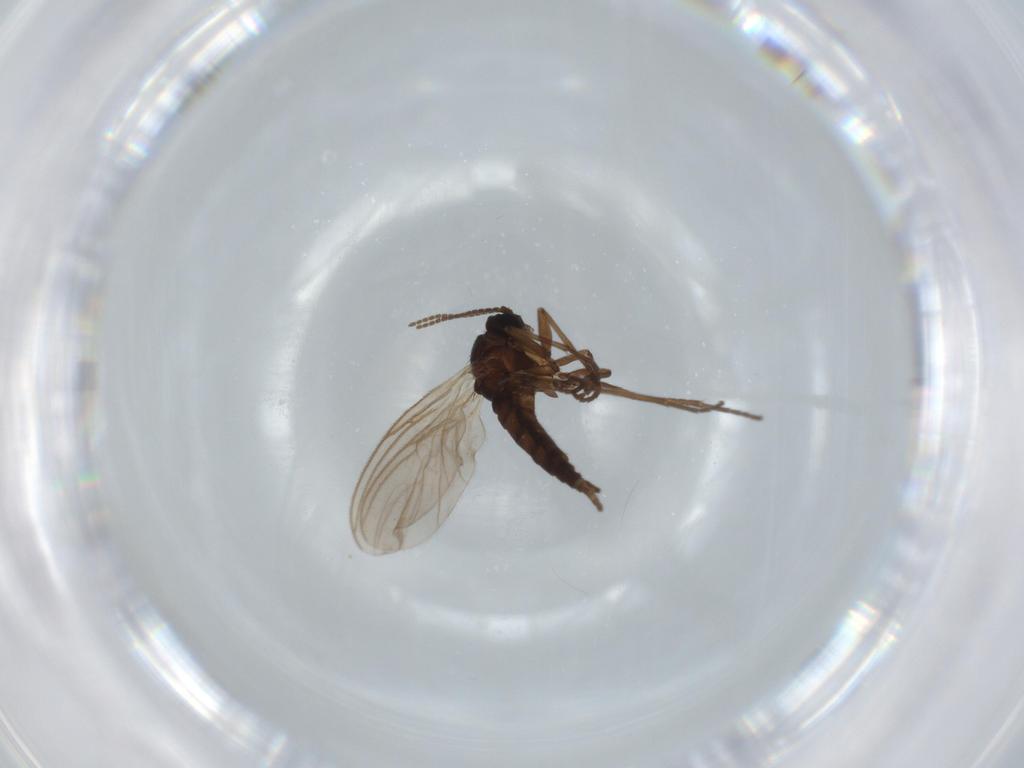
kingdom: Animalia
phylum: Arthropoda
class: Insecta
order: Diptera
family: Sciaridae
